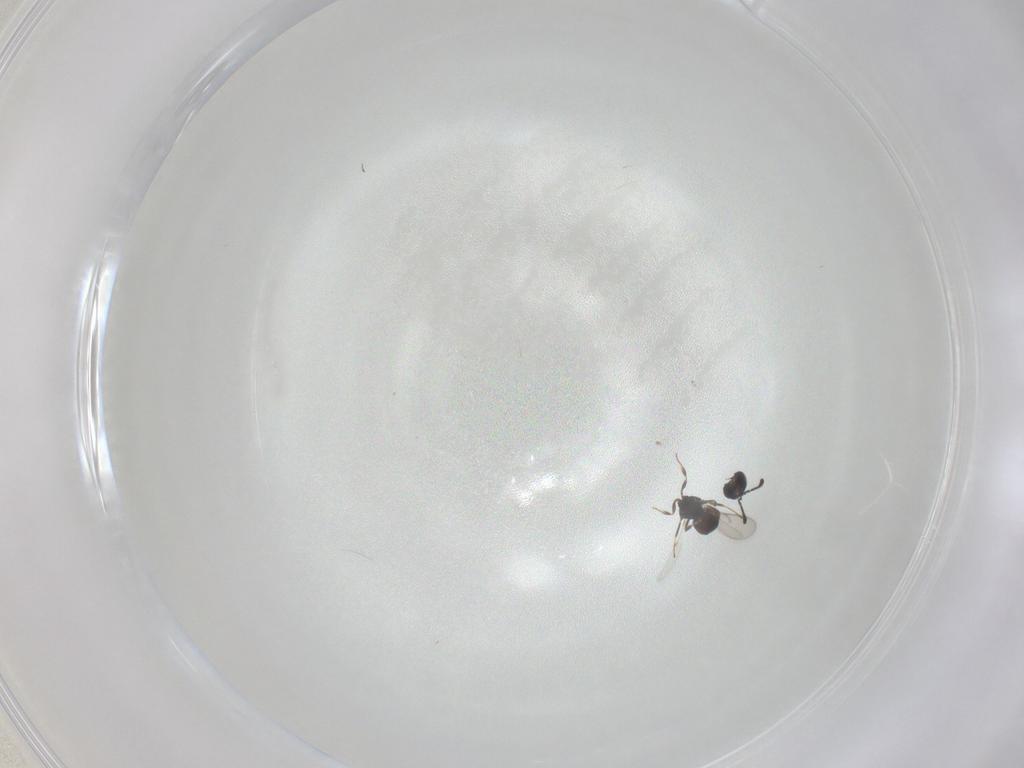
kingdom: Animalia
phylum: Arthropoda
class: Insecta
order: Hymenoptera
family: Scelionidae
